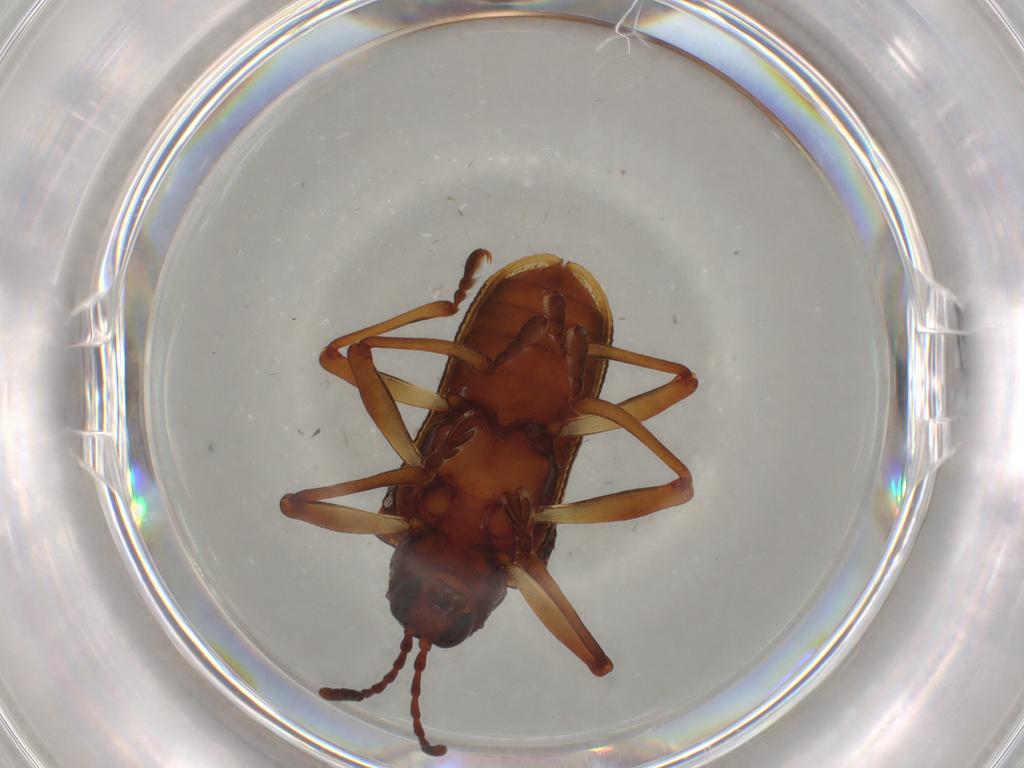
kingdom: Animalia
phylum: Arthropoda
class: Insecta
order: Coleoptera
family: Chrysomelidae
